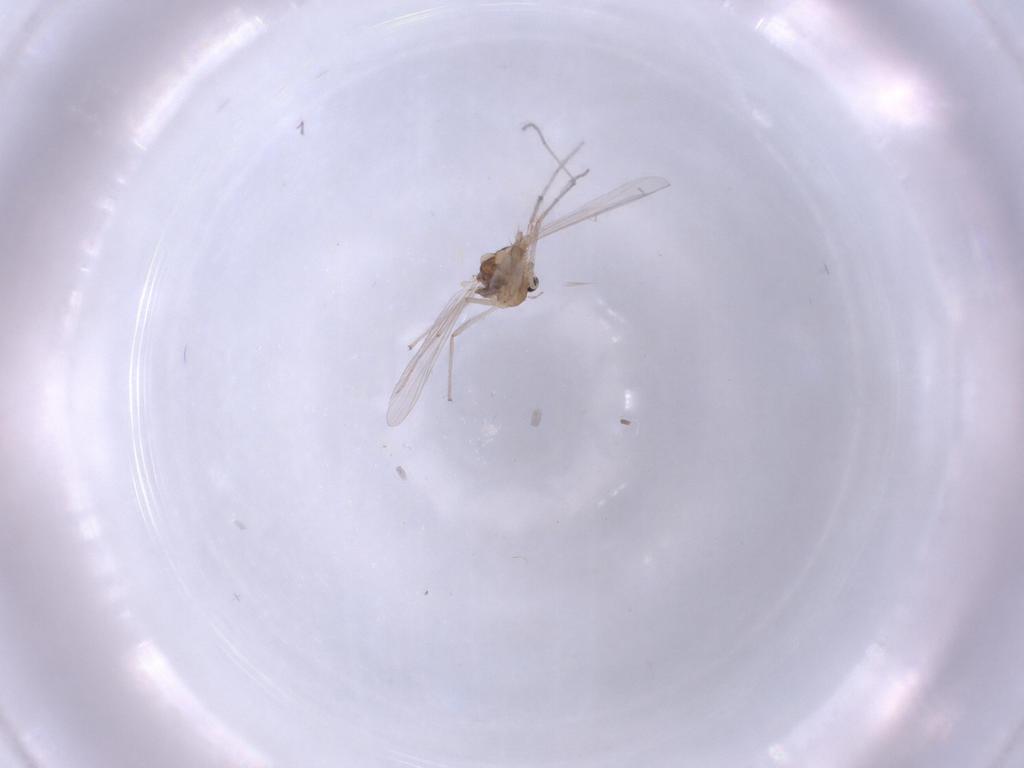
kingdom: Animalia
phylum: Arthropoda
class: Insecta
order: Diptera
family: Chironomidae
